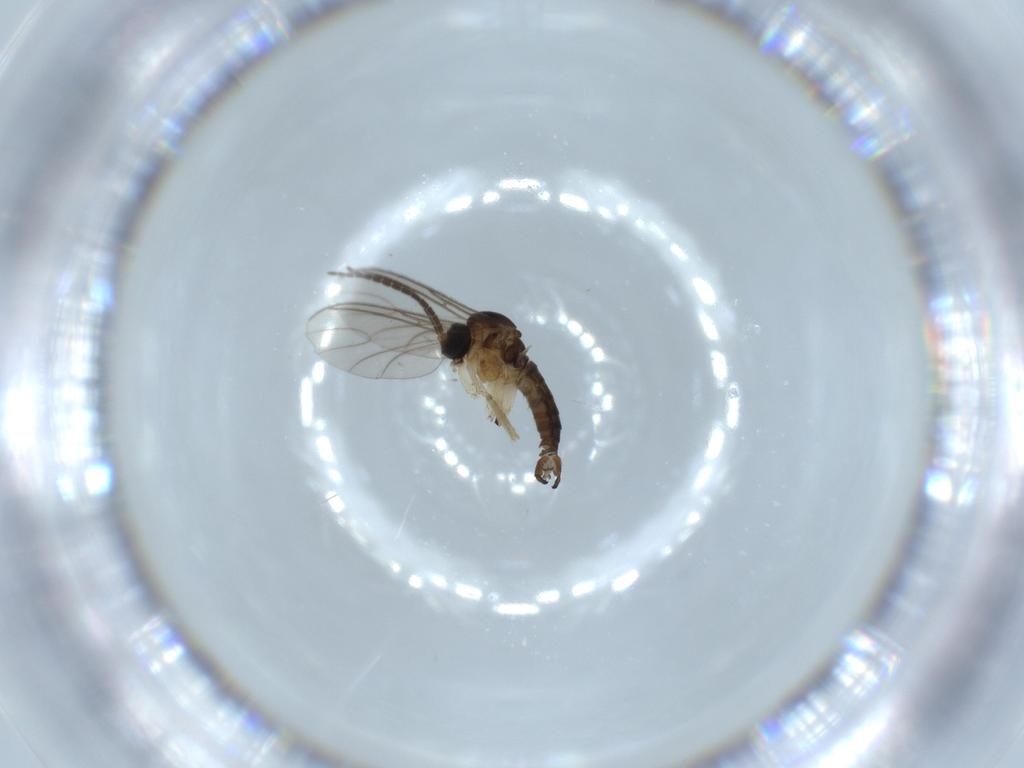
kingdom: Animalia
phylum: Arthropoda
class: Insecta
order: Diptera
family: Sciaridae
